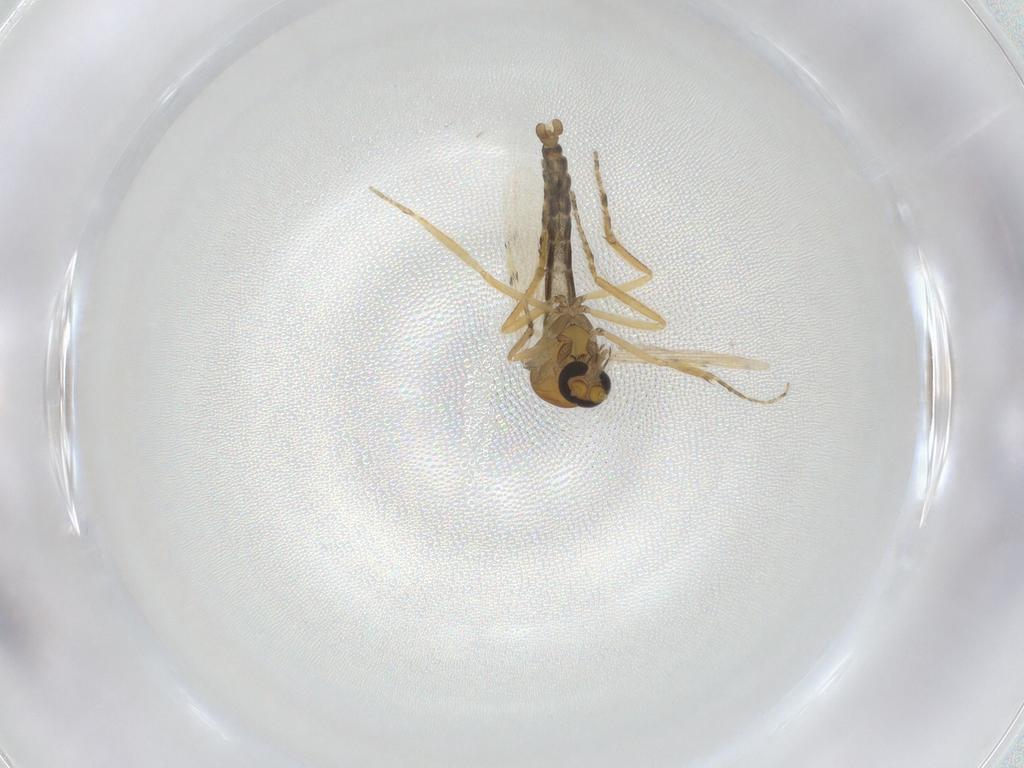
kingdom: Animalia
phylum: Arthropoda
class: Insecta
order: Diptera
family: Ceratopogonidae
